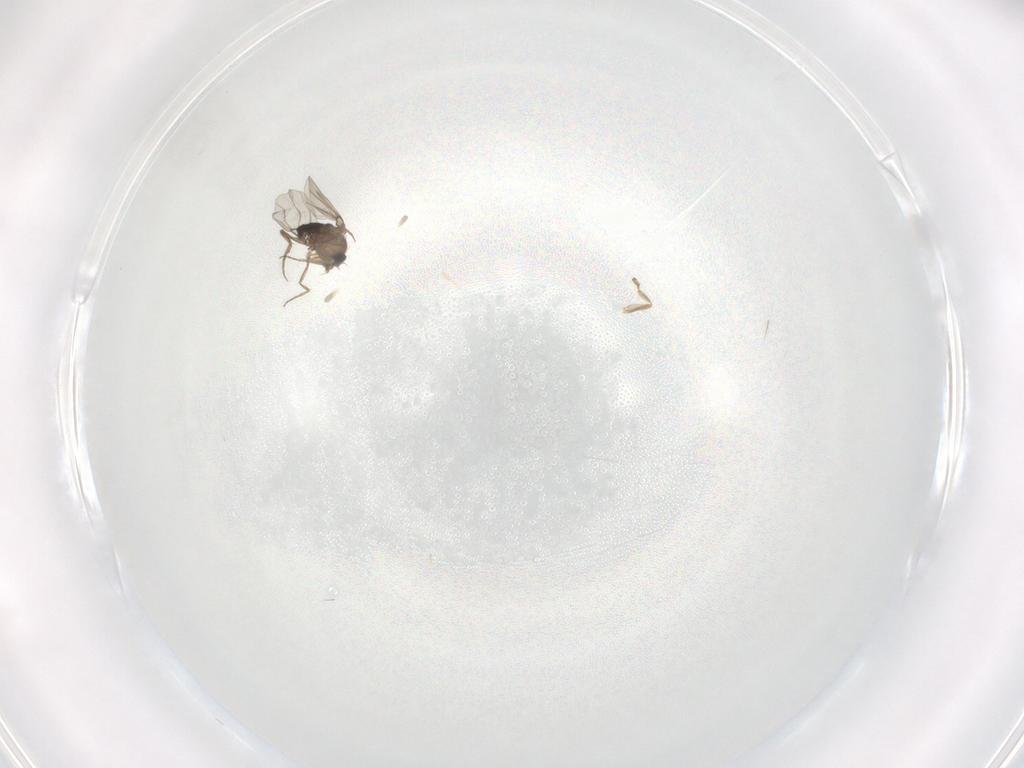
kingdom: Animalia
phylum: Arthropoda
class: Insecta
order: Diptera
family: Phoridae
